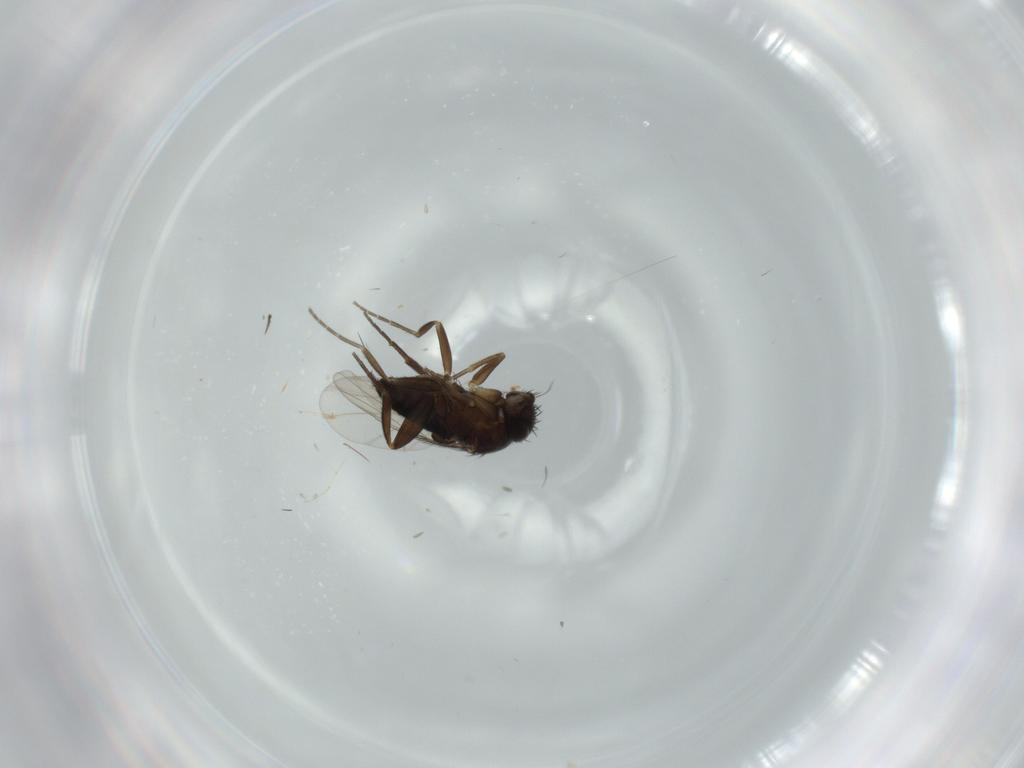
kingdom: Animalia
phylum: Arthropoda
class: Insecta
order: Diptera
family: Phoridae
